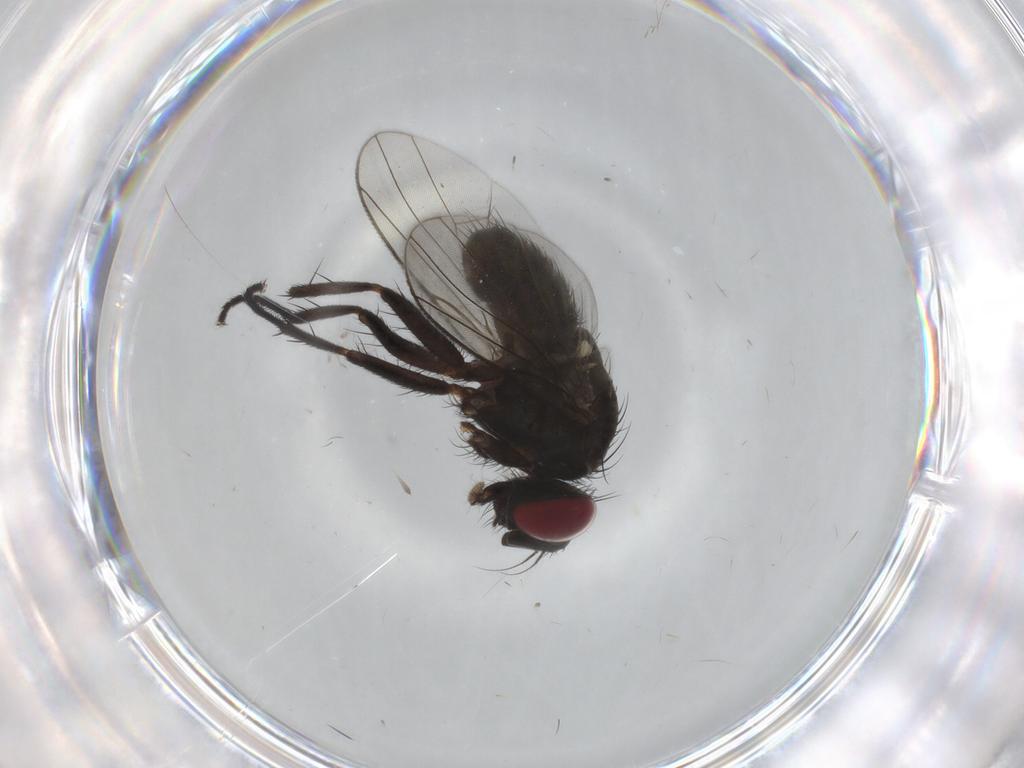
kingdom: Animalia
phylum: Arthropoda
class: Insecta
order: Diptera
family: Muscidae
